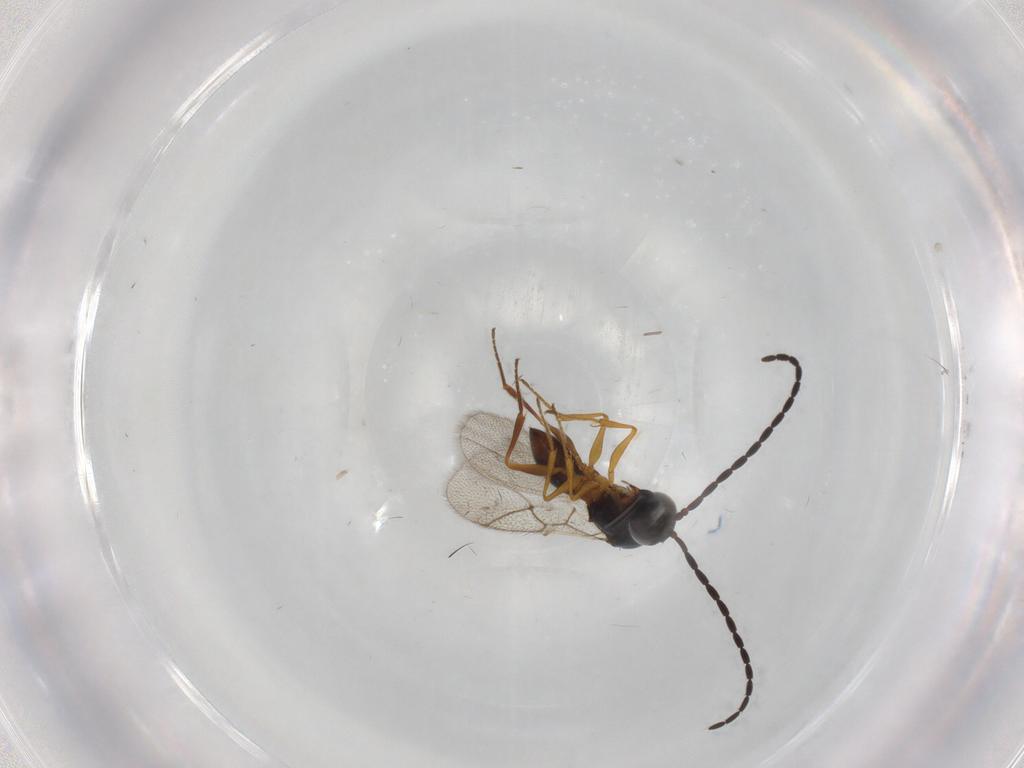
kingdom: Animalia
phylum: Arthropoda
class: Insecta
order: Hymenoptera
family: Figitidae
